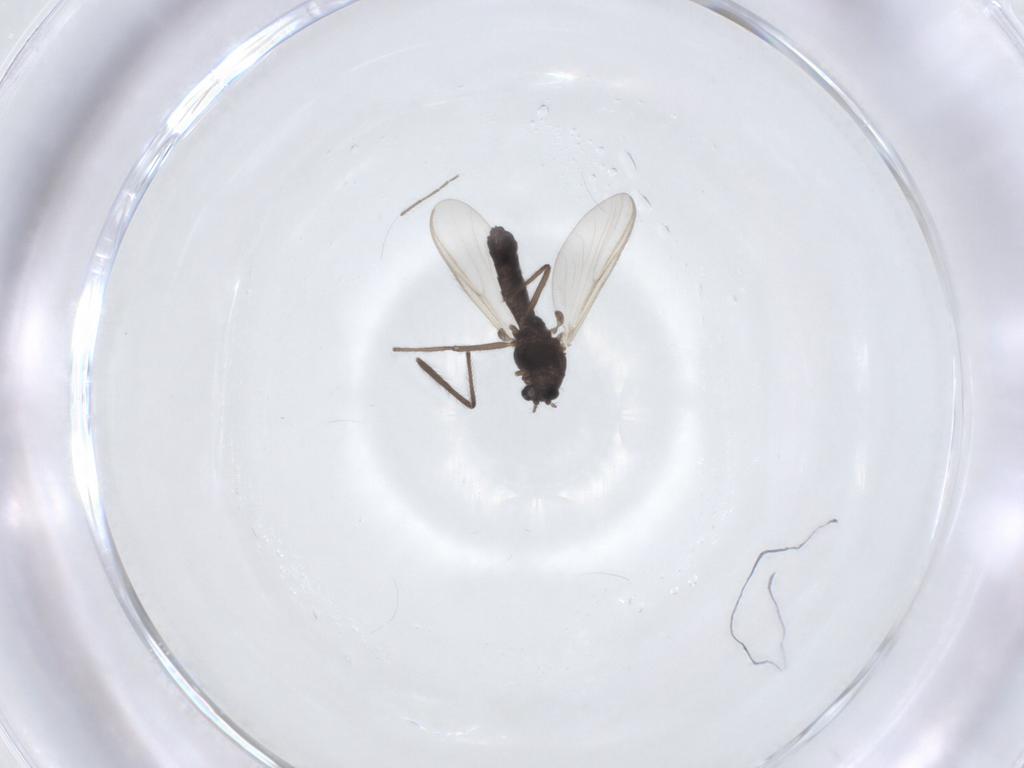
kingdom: Animalia
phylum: Arthropoda
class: Insecta
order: Diptera
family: Chironomidae
